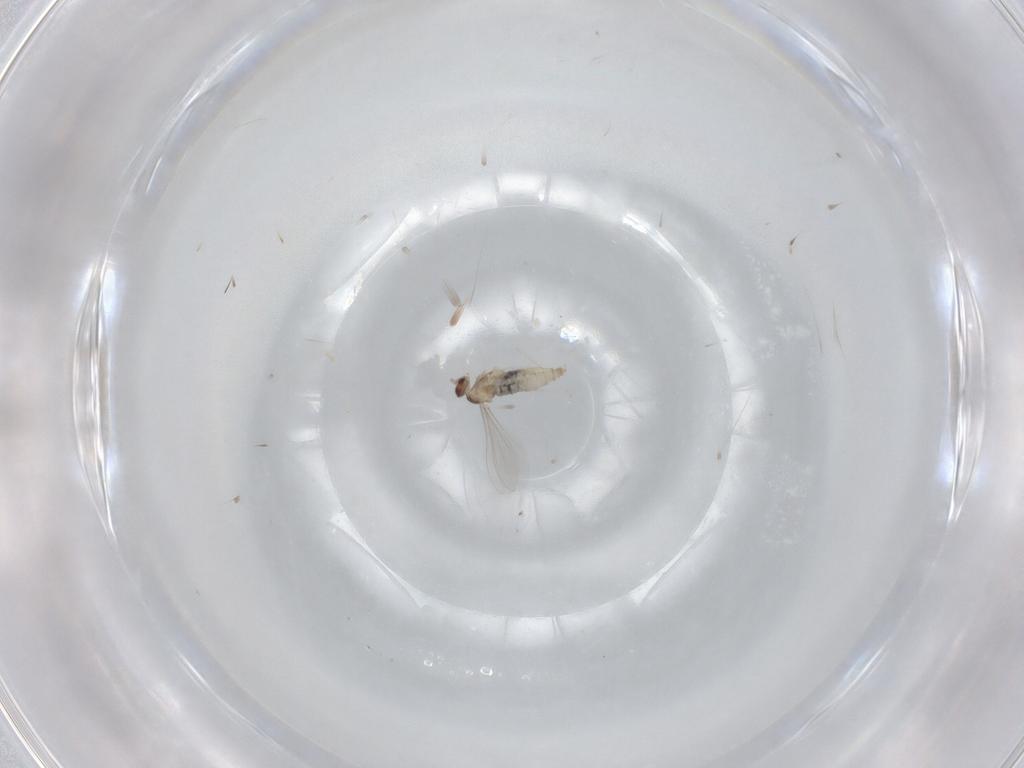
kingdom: Animalia
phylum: Arthropoda
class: Insecta
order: Diptera
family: Cecidomyiidae
